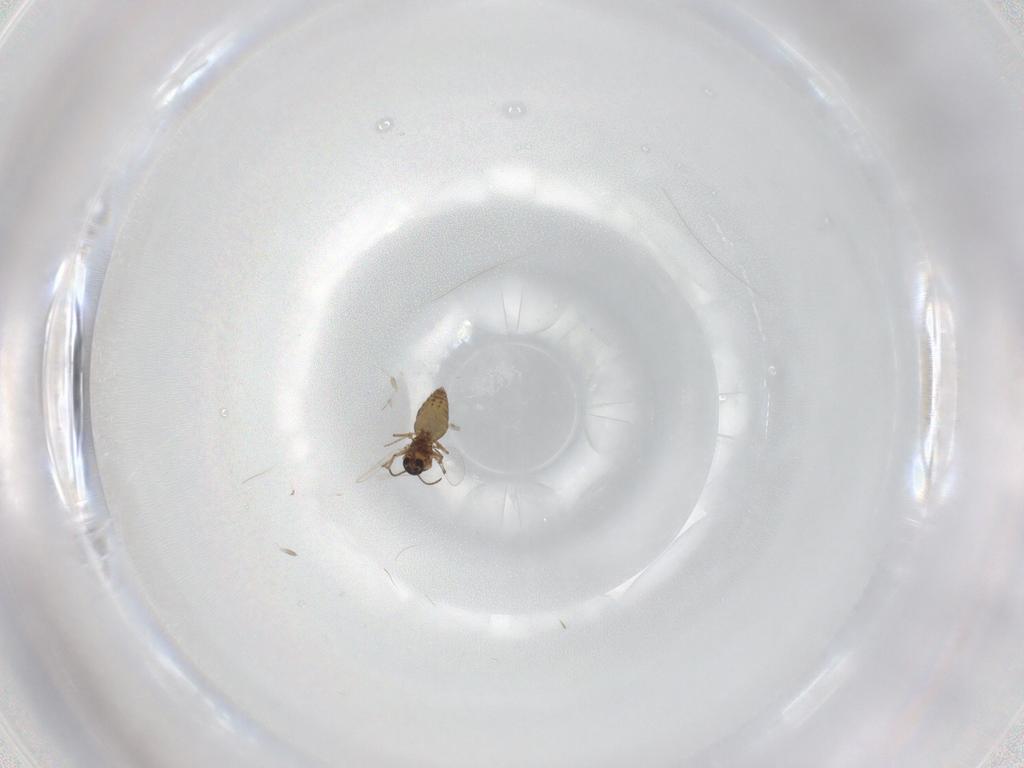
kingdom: Animalia
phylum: Arthropoda
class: Insecta
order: Diptera
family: Ceratopogonidae
